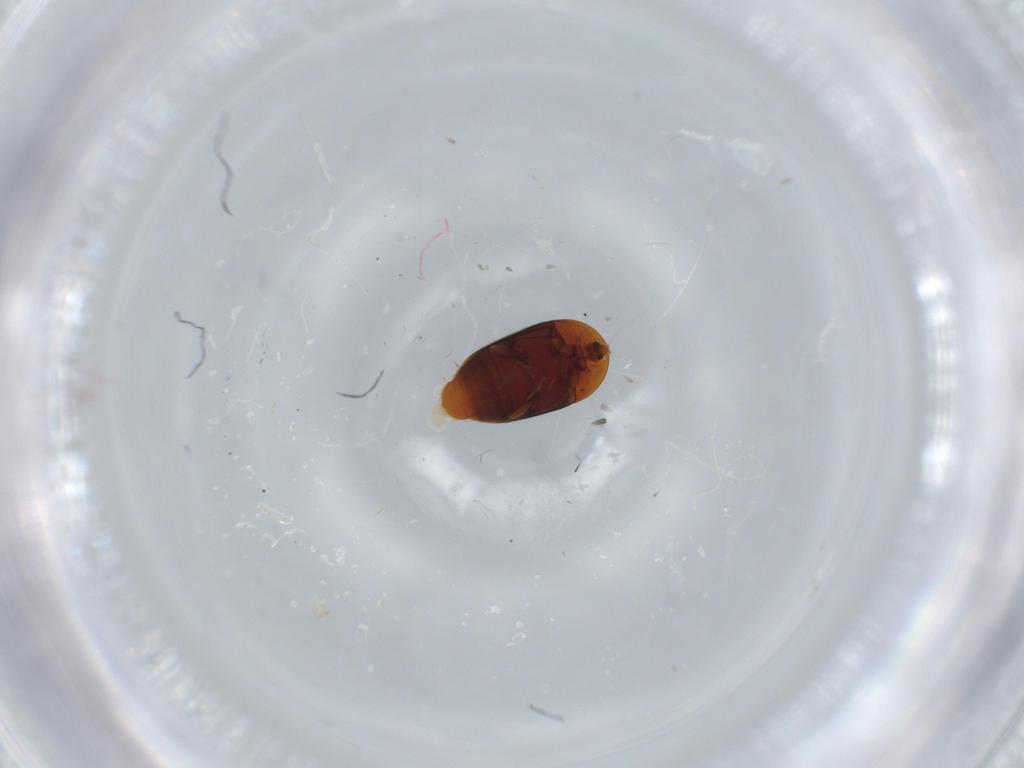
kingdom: Animalia
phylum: Arthropoda
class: Insecta
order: Coleoptera
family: Corylophidae
